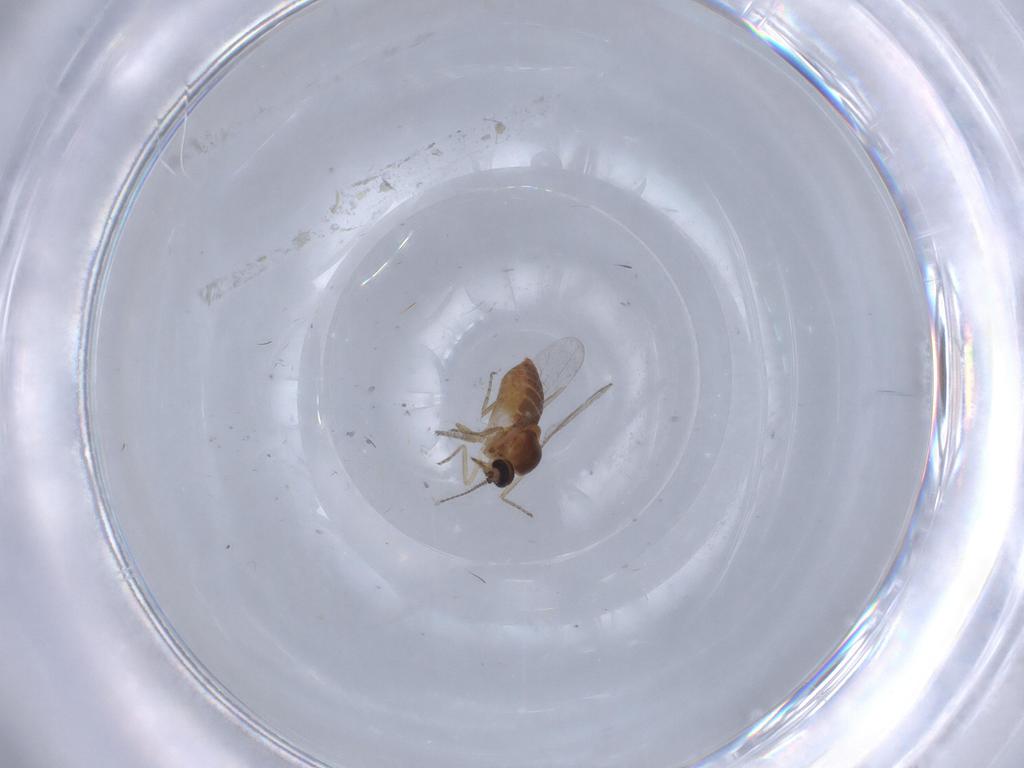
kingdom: Animalia
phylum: Arthropoda
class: Insecta
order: Diptera
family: Ceratopogonidae
